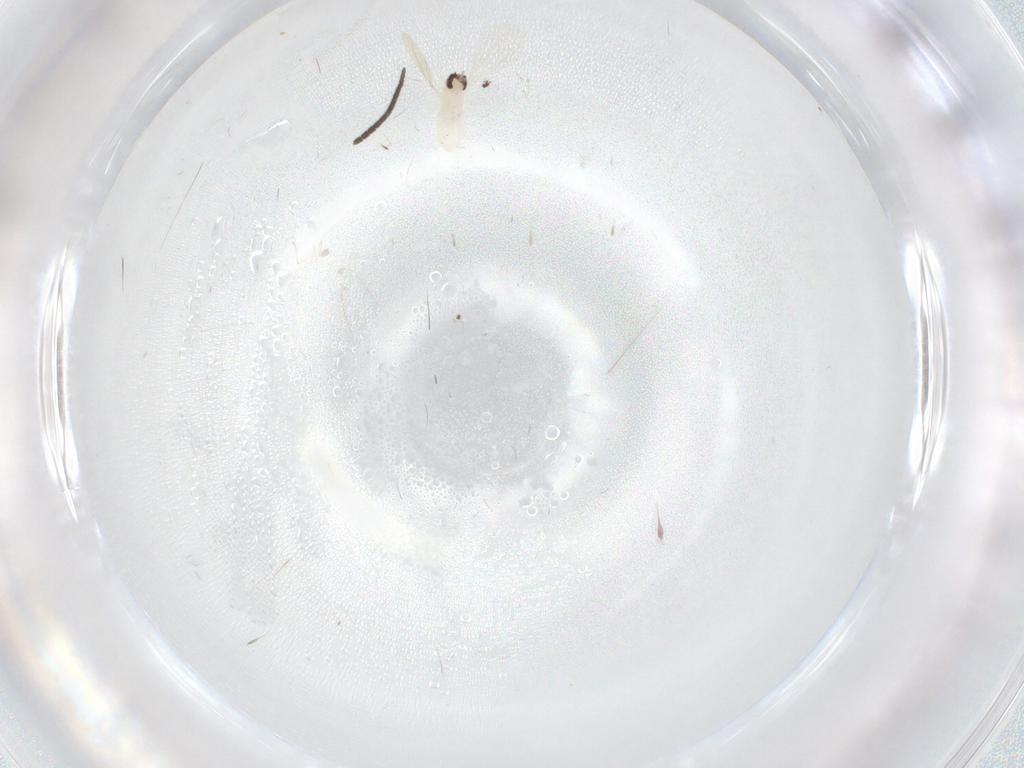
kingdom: Animalia
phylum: Arthropoda
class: Insecta
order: Diptera
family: Cecidomyiidae
